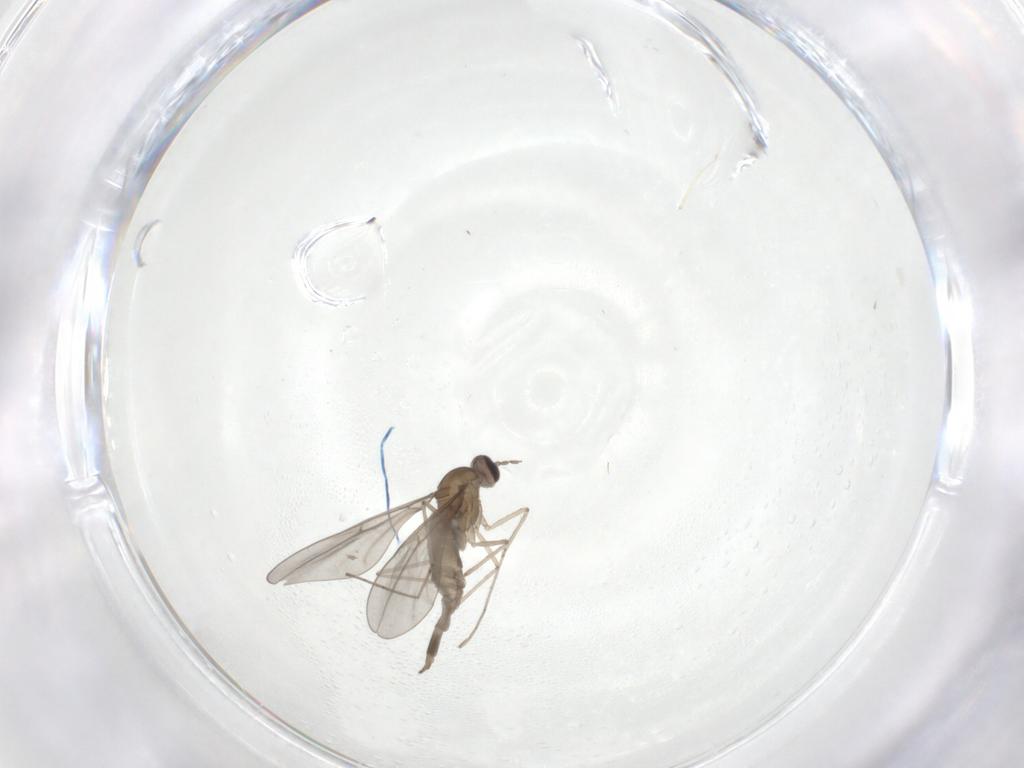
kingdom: Animalia
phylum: Arthropoda
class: Insecta
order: Diptera
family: Cecidomyiidae
